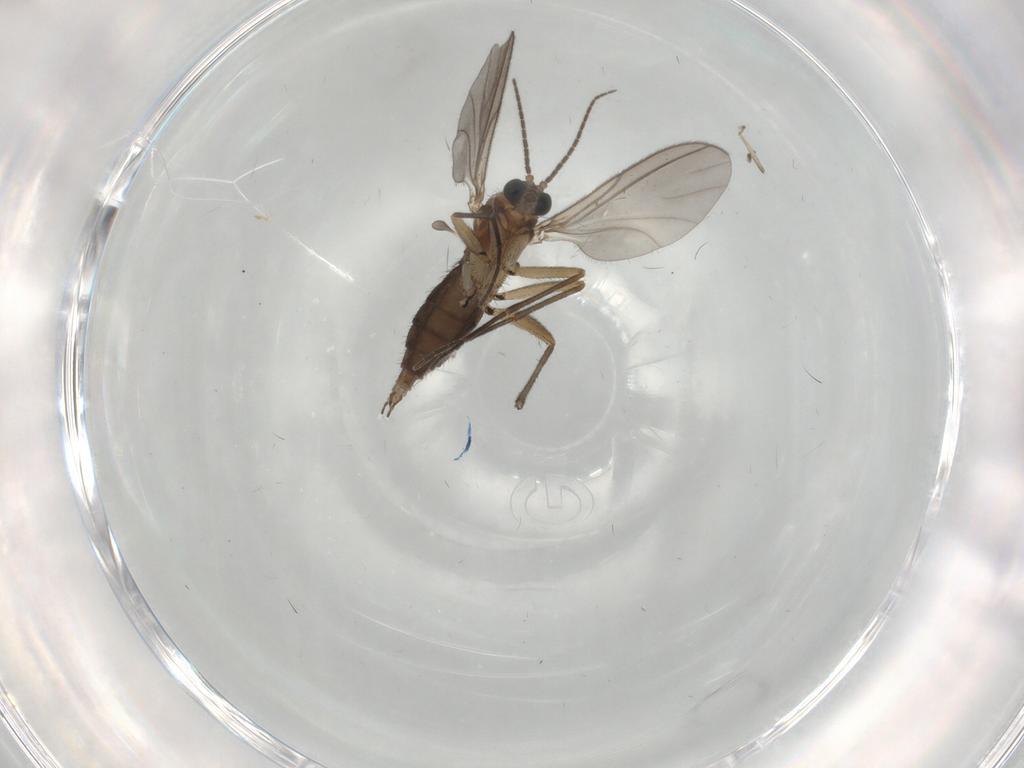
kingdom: Animalia
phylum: Arthropoda
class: Insecta
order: Diptera
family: Sciaridae
